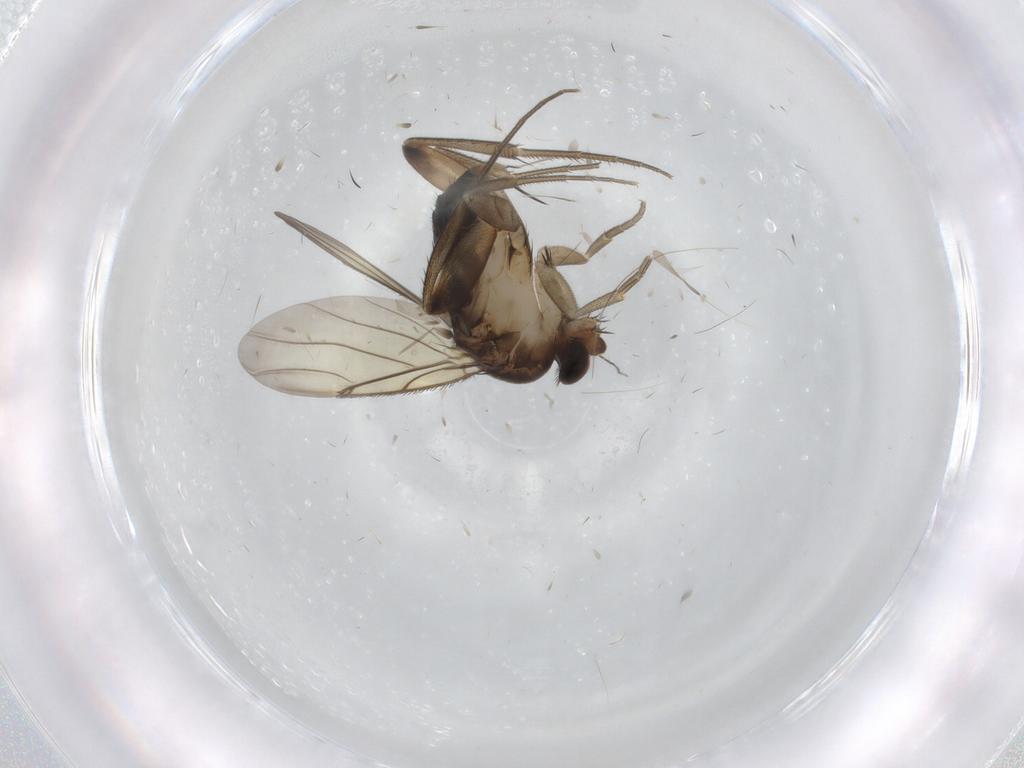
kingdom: Animalia
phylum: Arthropoda
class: Insecta
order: Diptera
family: Phoridae
